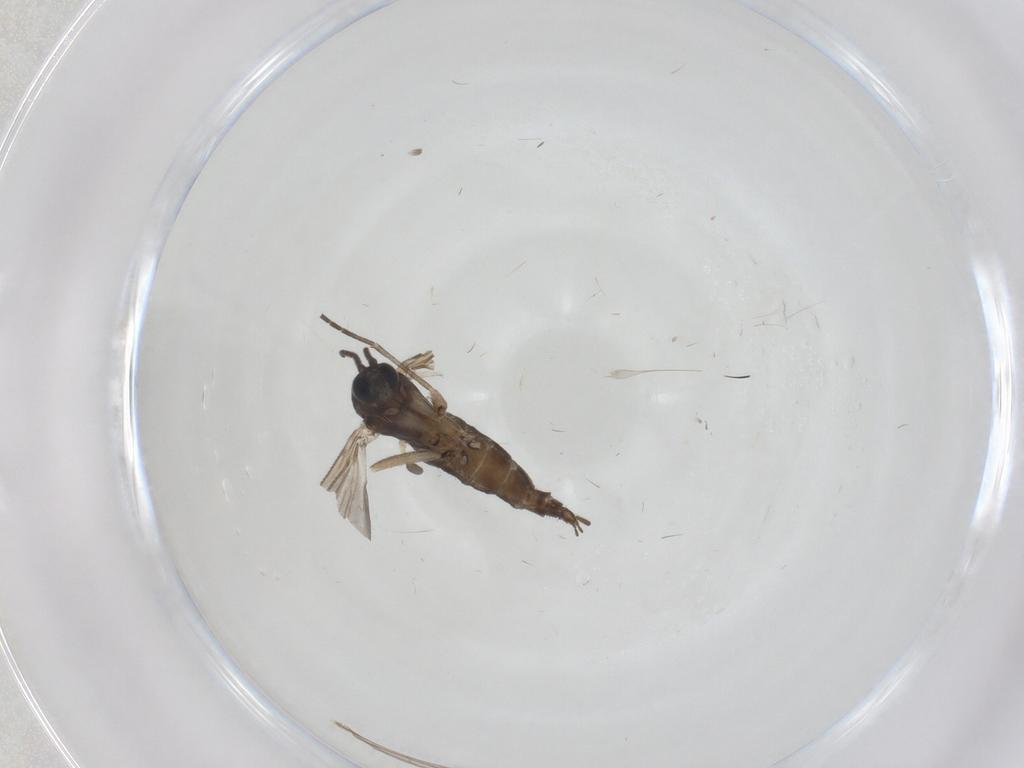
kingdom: Animalia
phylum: Arthropoda
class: Insecta
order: Diptera
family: Sciaridae
